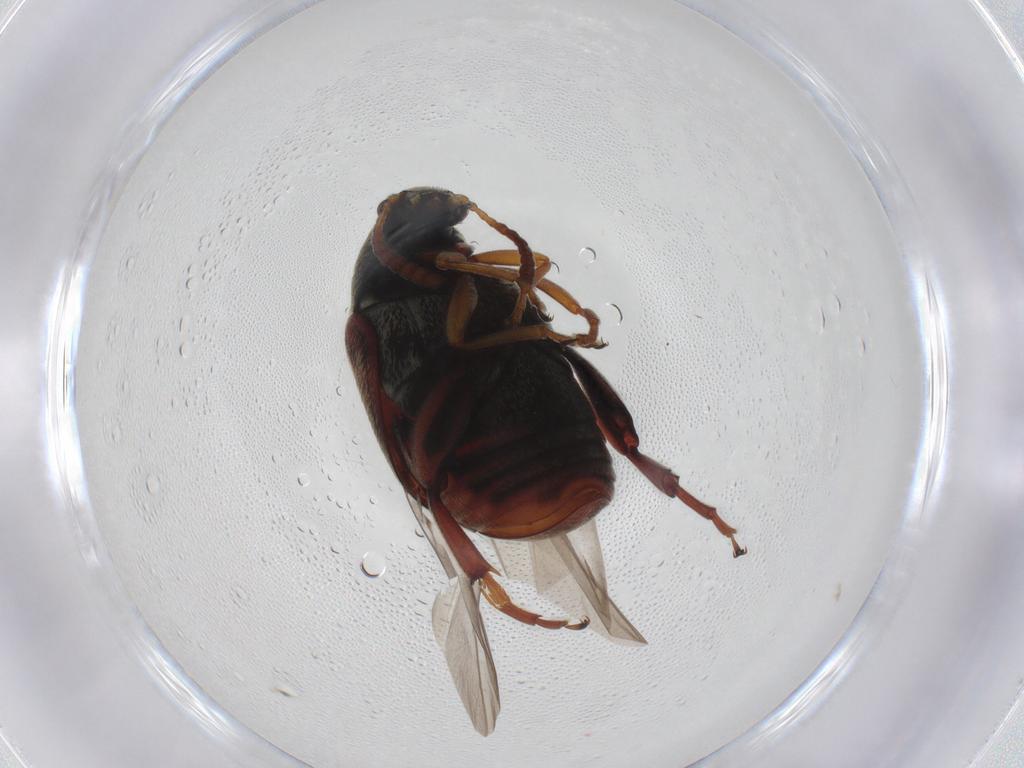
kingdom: Animalia
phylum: Arthropoda
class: Insecta
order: Coleoptera
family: Chrysomelidae
